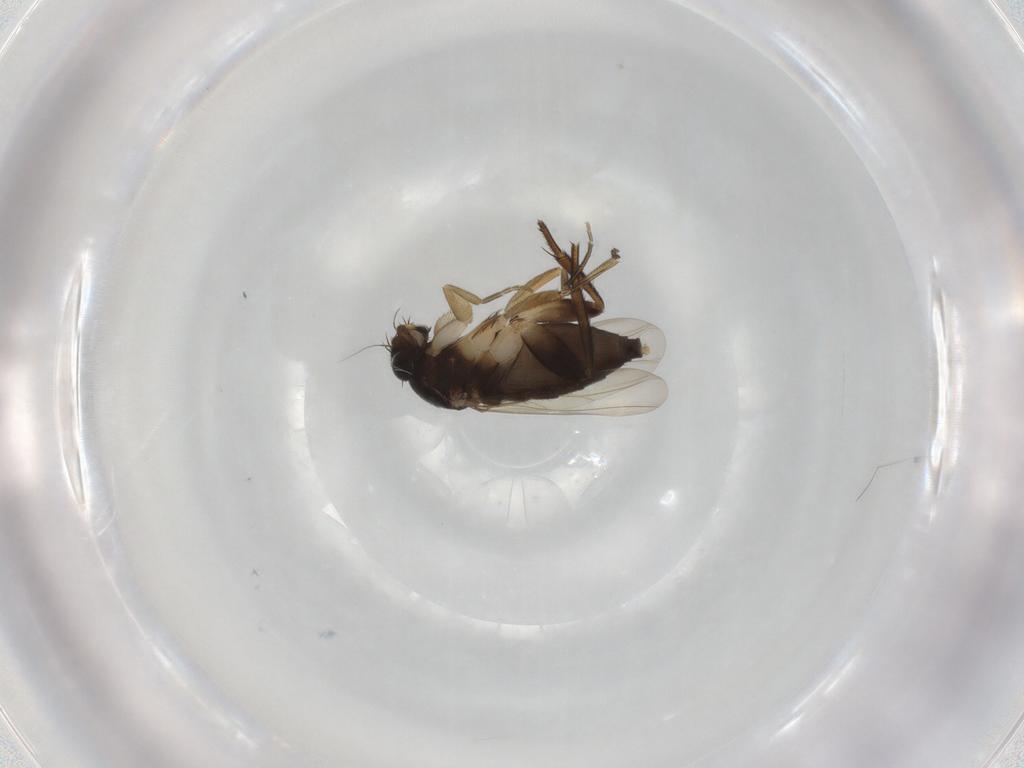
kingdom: Animalia
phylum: Arthropoda
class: Insecta
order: Diptera
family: Phoridae
